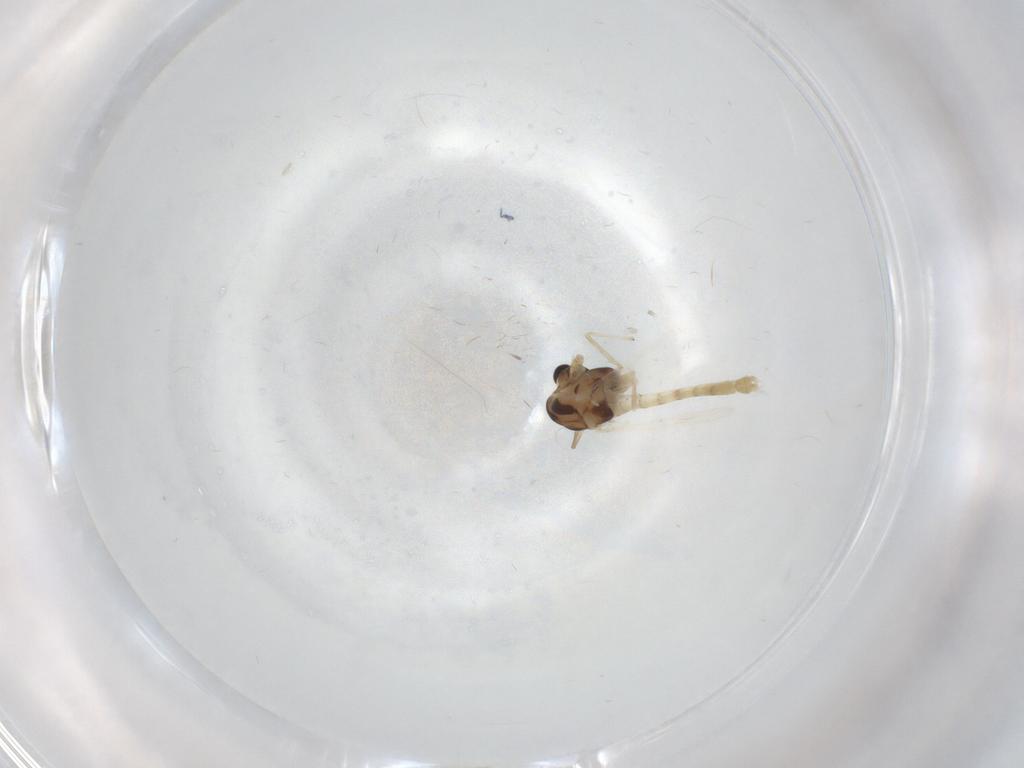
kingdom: Animalia
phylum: Arthropoda
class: Insecta
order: Diptera
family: Chironomidae
